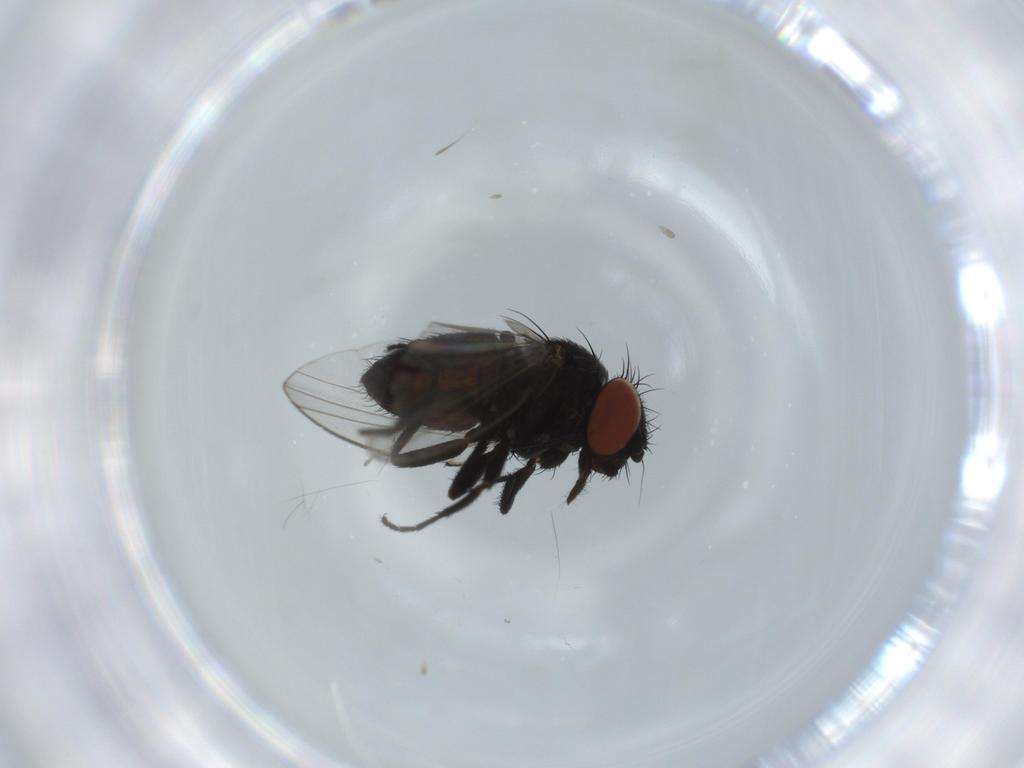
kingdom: Animalia
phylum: Arthropoda
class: Insecta
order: Diptera
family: Milichiidae
